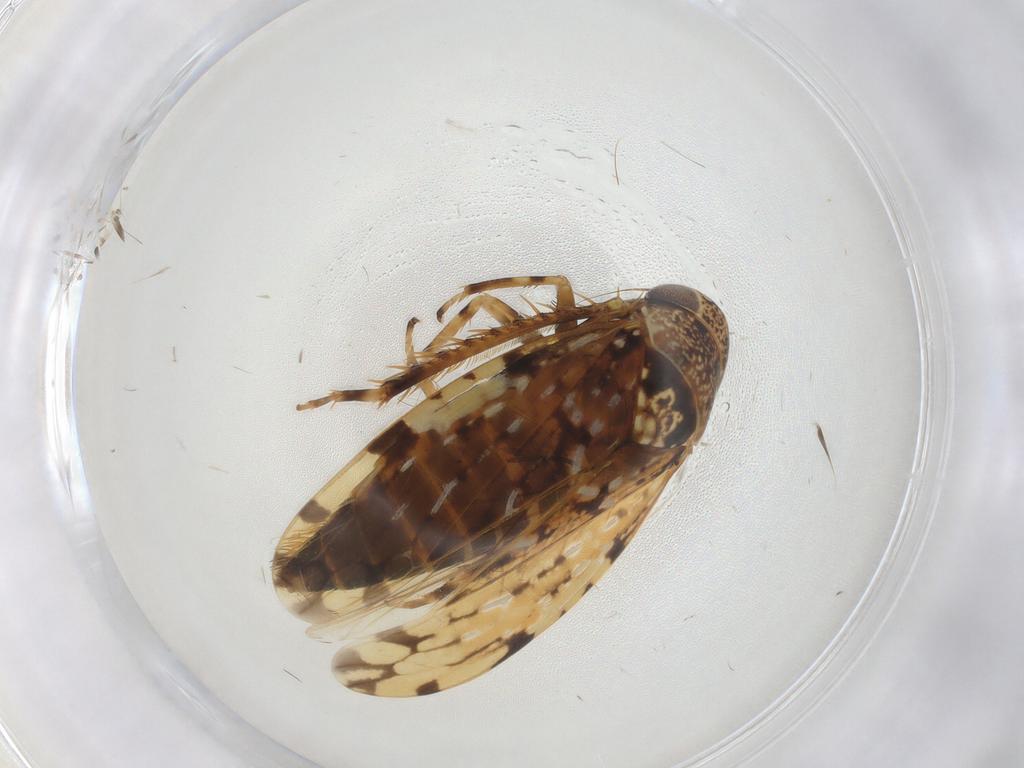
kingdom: Animalia
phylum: Arthropoda
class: Insecta
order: Hemiptera
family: Cicadellidae
